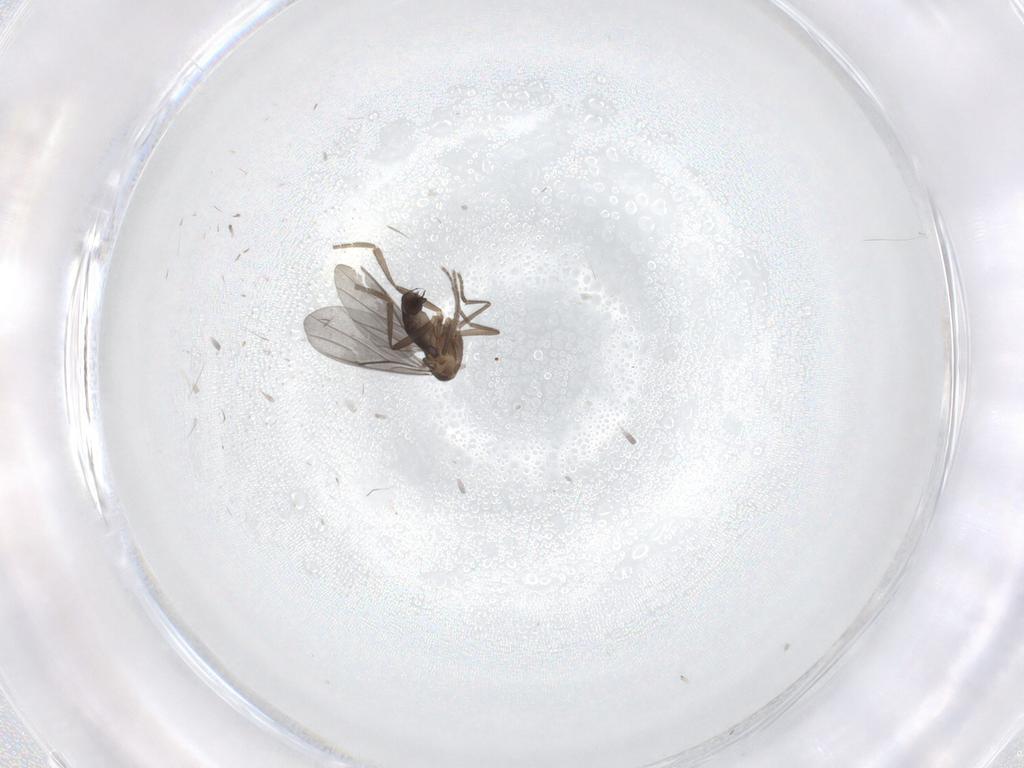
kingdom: Animalia
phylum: Arthropoda
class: Insecta
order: Diptera
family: Phoridae
